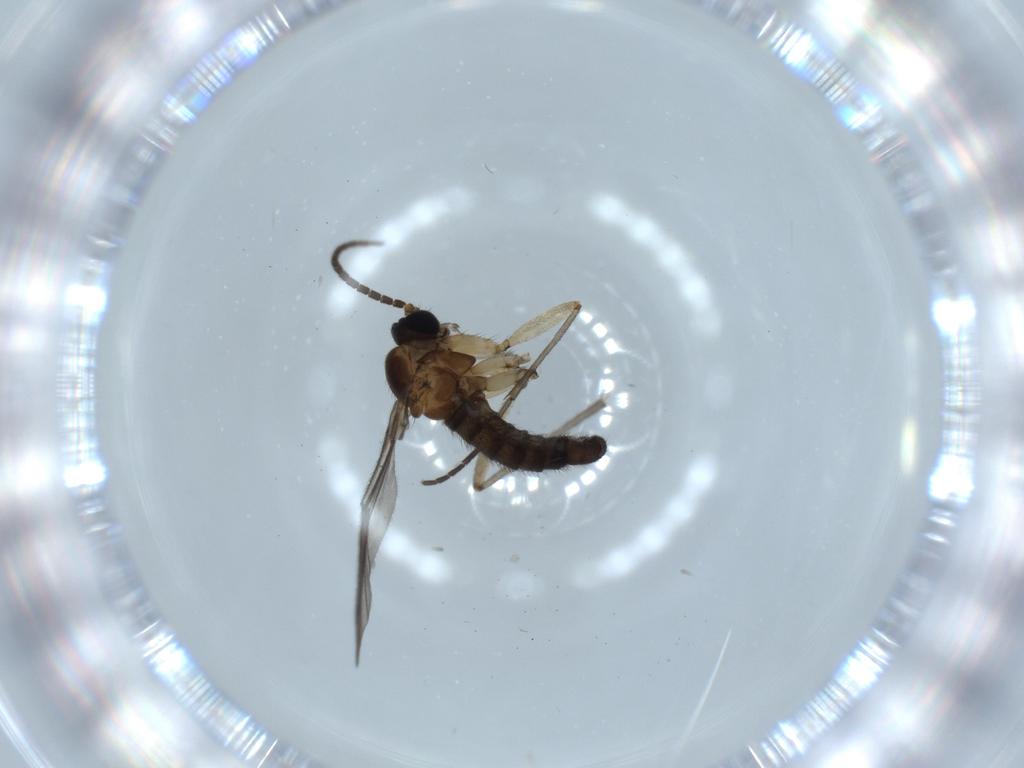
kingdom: Animalia
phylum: Arthropoda
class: Insecta
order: Diptera
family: Sciaridae
